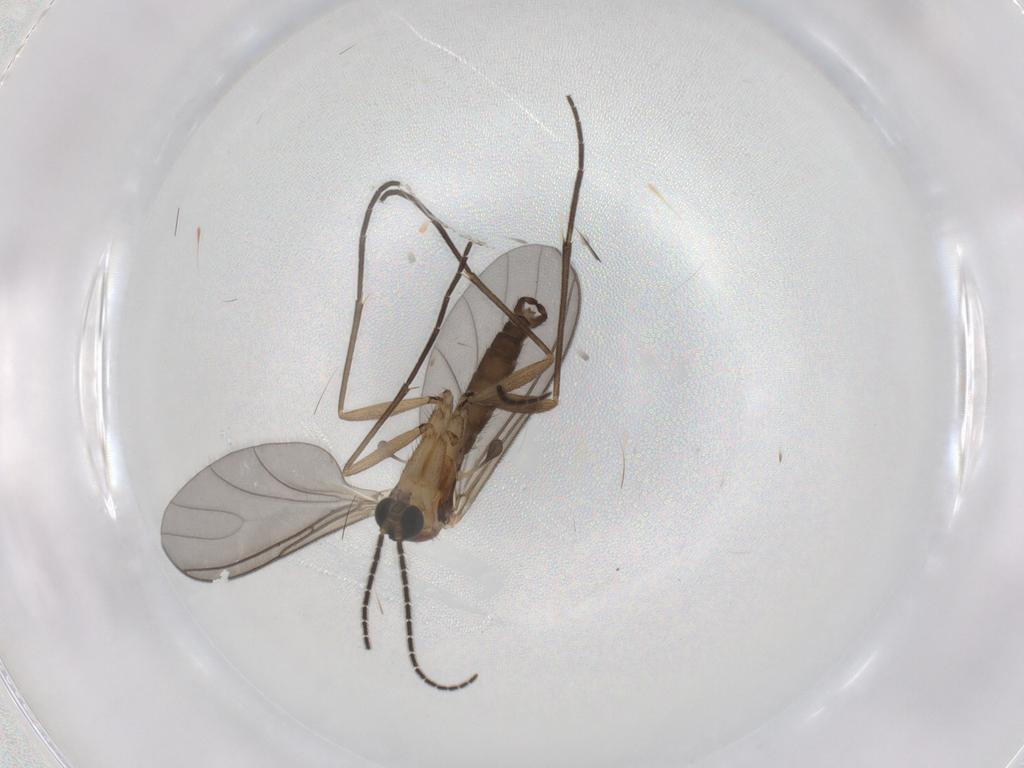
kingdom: Animalia
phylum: Arthropoda
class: Insecta
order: Diptera
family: Sciaridae
